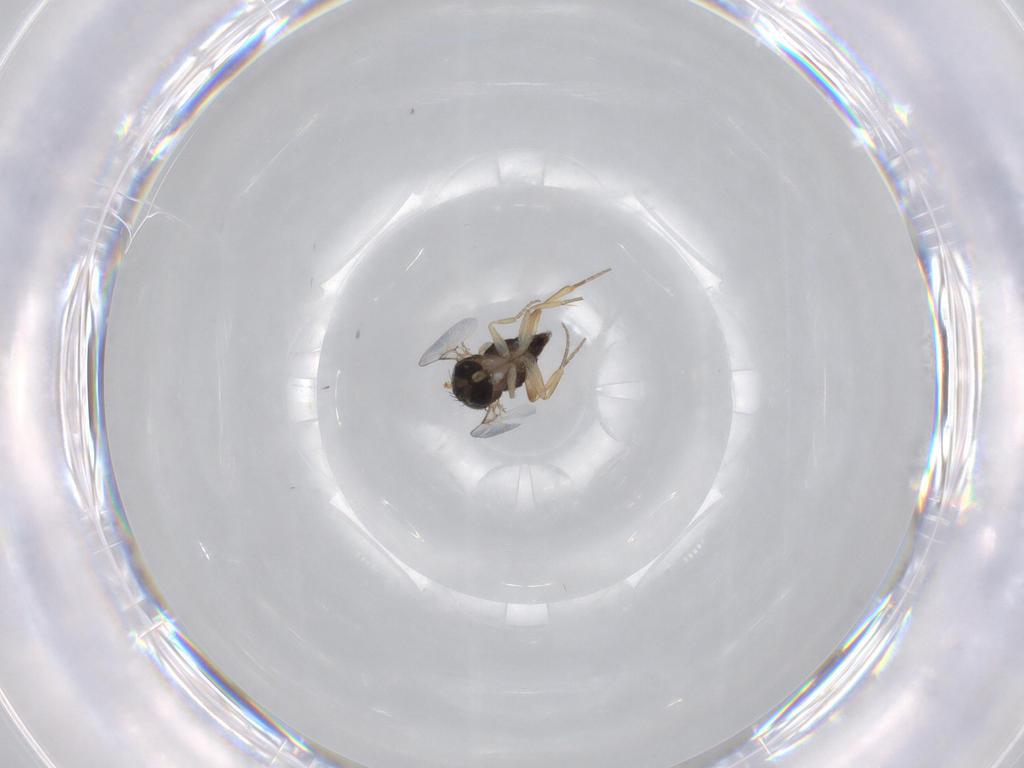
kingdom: Animalia
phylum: Arthropoda
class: Insecta
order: Diptera
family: Phoridae
